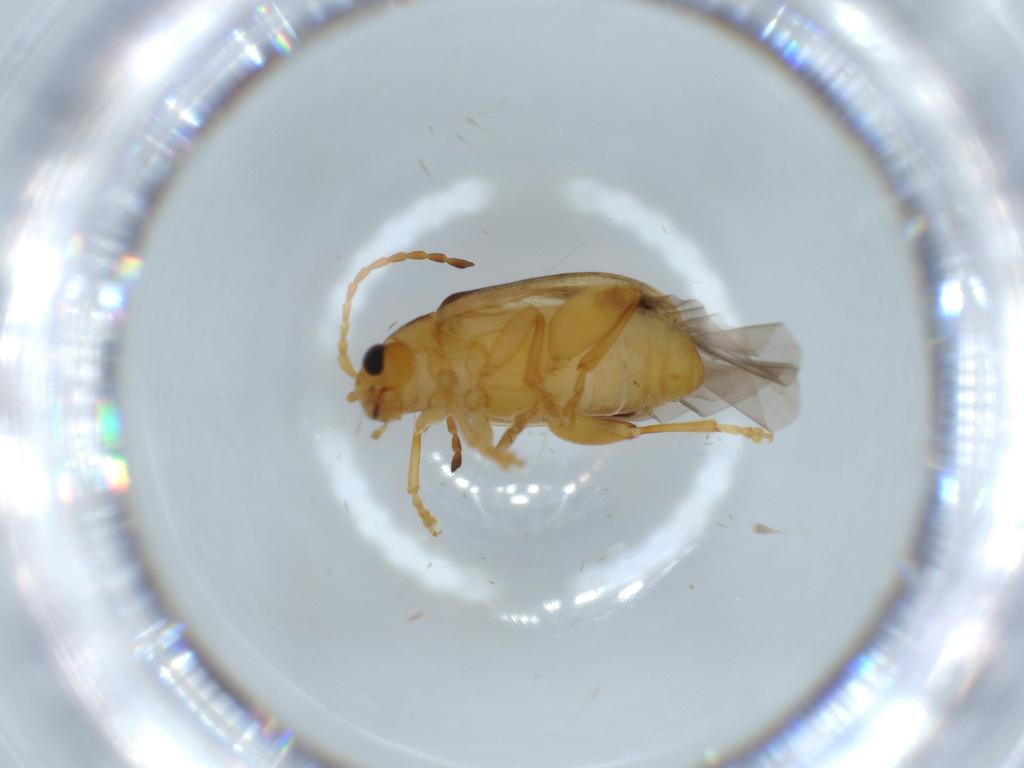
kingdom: Animalia
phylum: Arthropoda
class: Insecta
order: Coleoptera
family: Chrysomelidae
